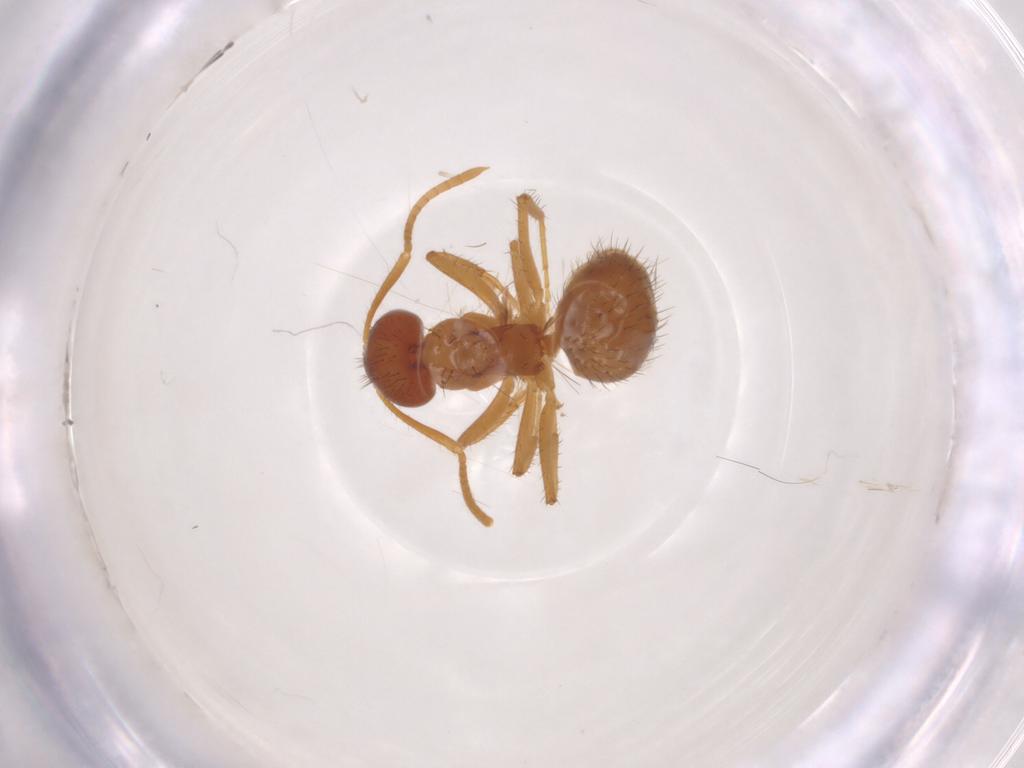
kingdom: Animalia
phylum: Arthropoda
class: Insecta
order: Hymenoptera
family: Formicidae
